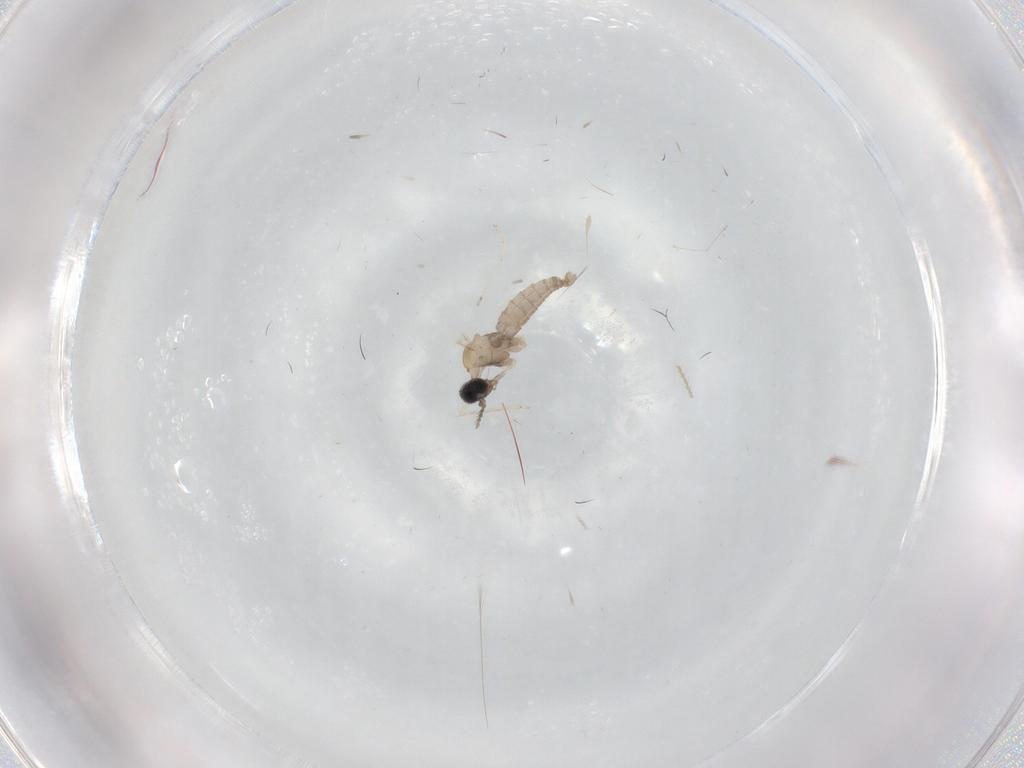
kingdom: Animalia
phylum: Arthropoda
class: Insecta
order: Diptera
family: Cecidomyiidae
